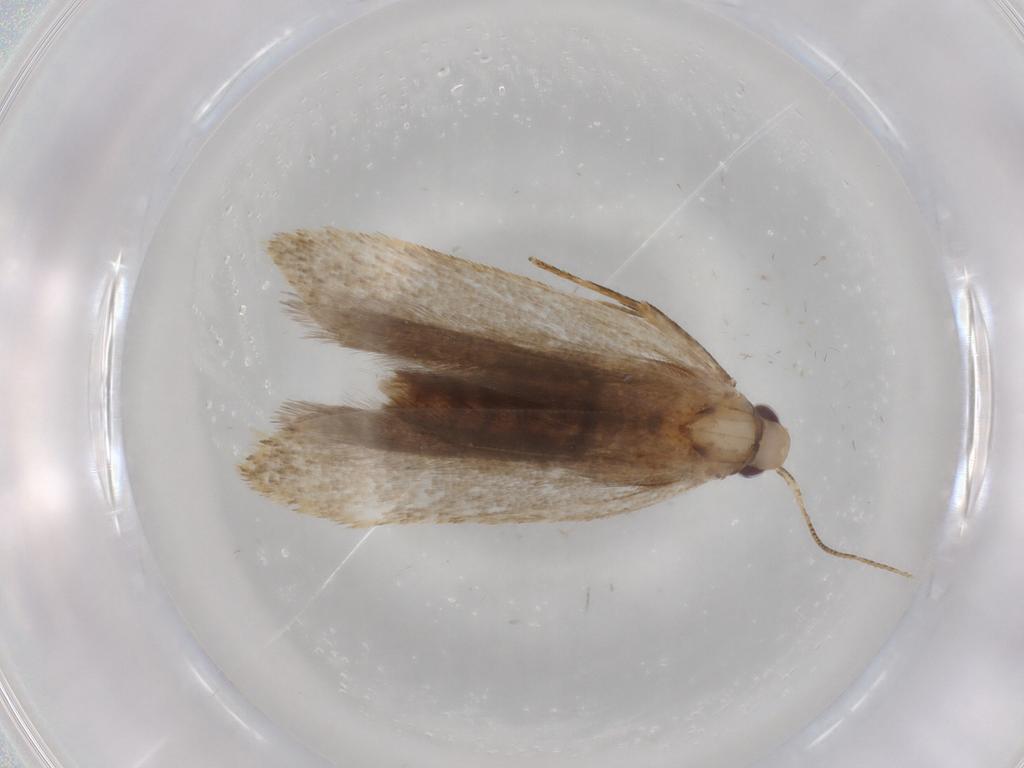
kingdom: Animalia
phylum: Arthropoda
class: Insecta
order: Lepidoptera
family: Gelechiidae
